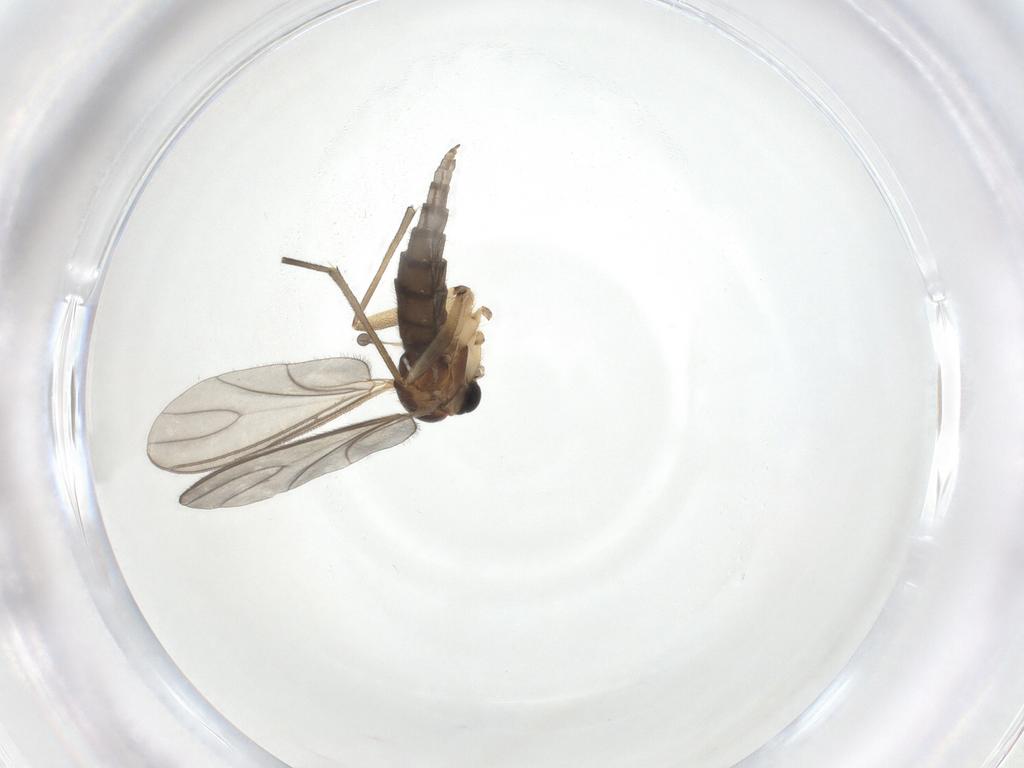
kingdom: Animalia
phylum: Arthropoda
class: Insecta
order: Diptera
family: Sciaridae
